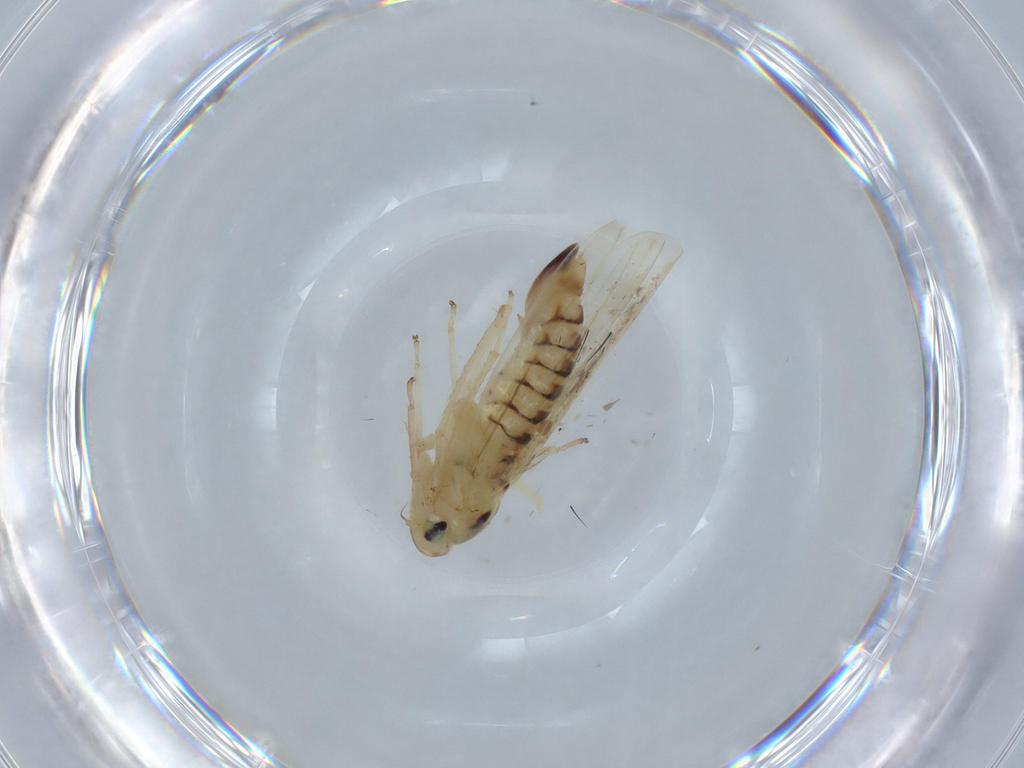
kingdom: Animalia
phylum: Arthropoda
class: Insecta
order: Hemiptera
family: Cicadellidae
